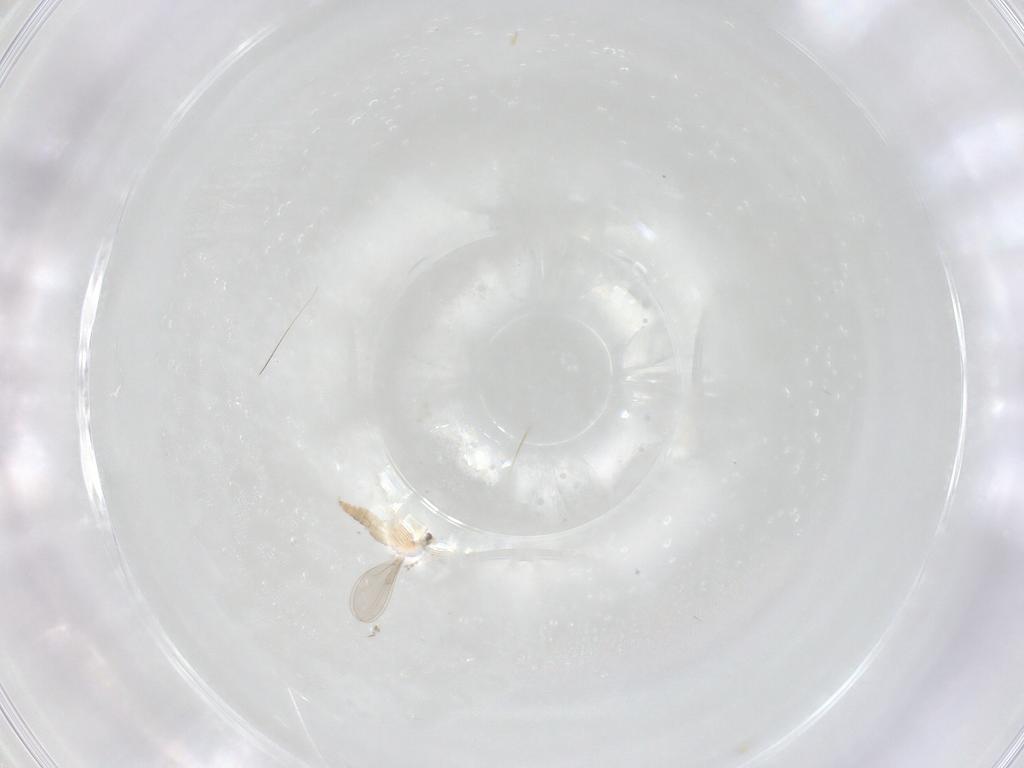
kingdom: Animalia
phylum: Arthropoda
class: Insecta
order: Diptera
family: Cecidomyiidae
